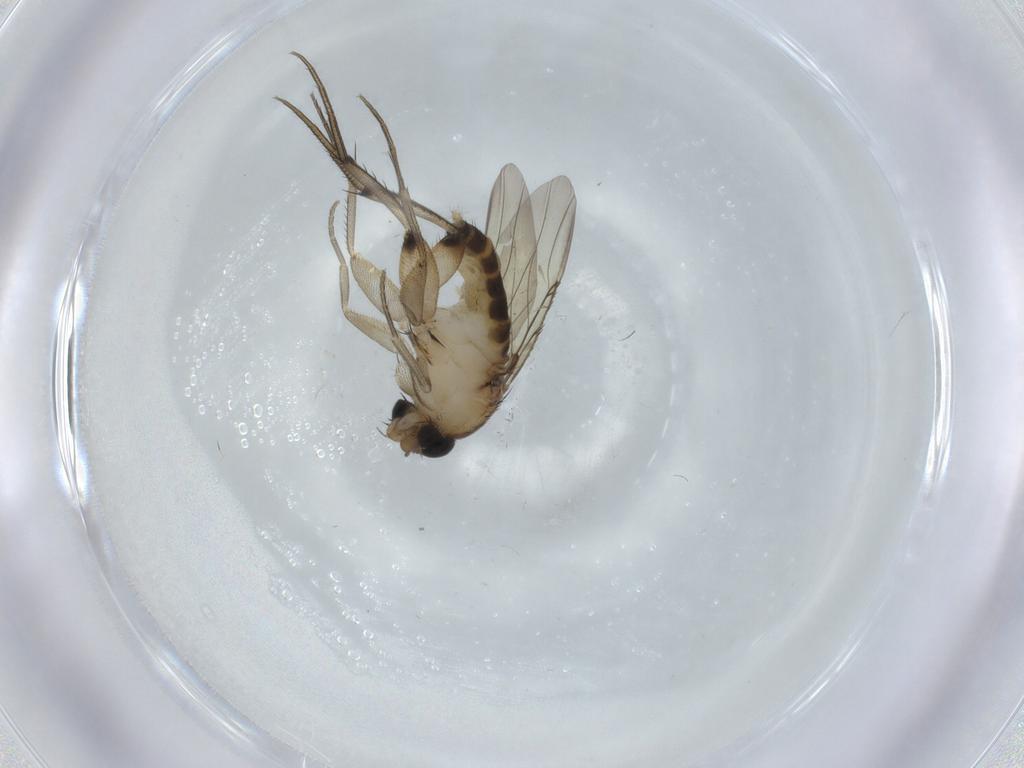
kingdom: Animalia
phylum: Arthropoda
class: Insecta
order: Diptera
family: Phoridae
